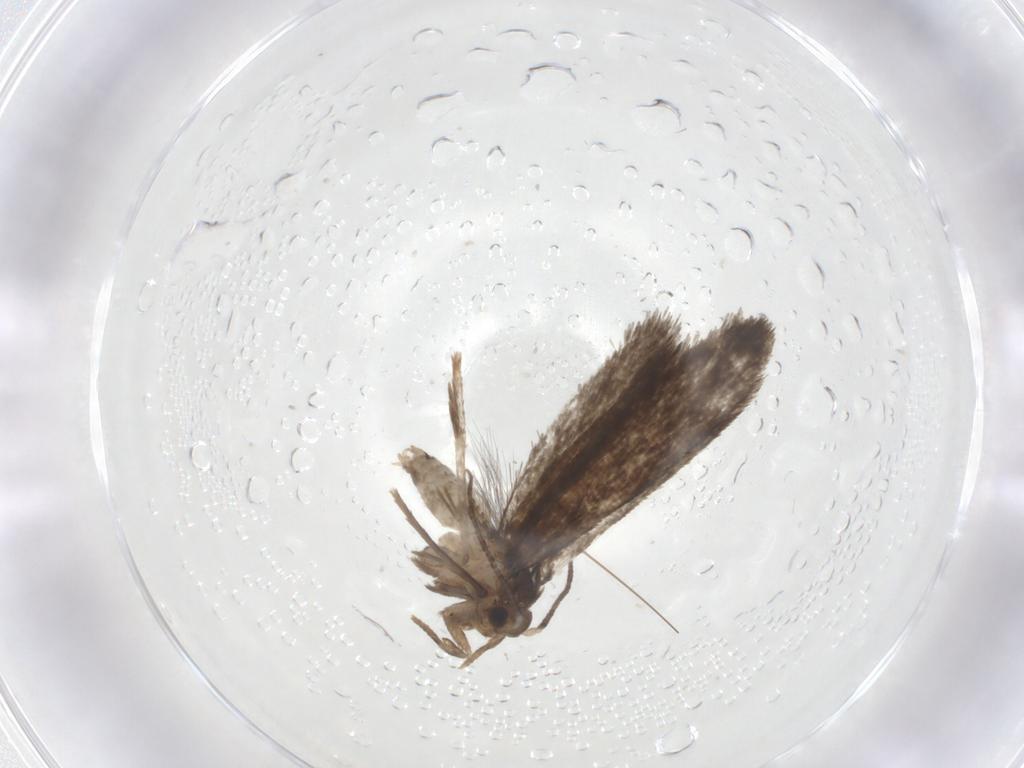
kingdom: Animalia
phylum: Arthropoda
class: Insecta
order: Lepidoptera
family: Crambidae
